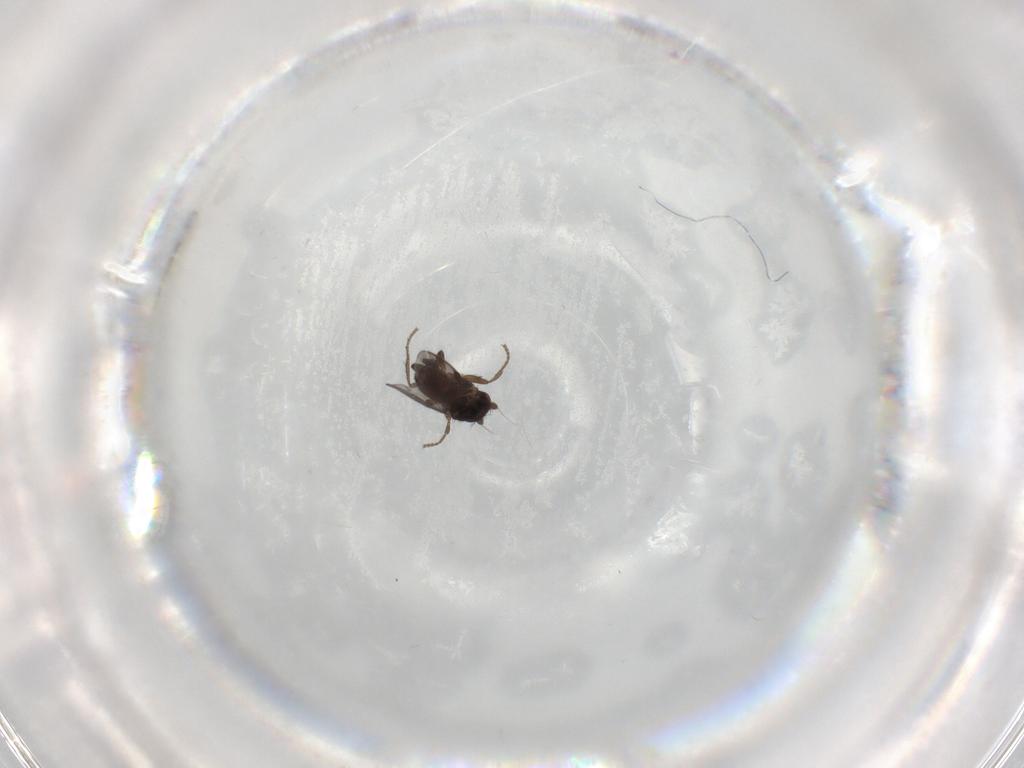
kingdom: Animalia
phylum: Arthropoda
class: Insecta
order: Diptera
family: Sphaeroceridae
